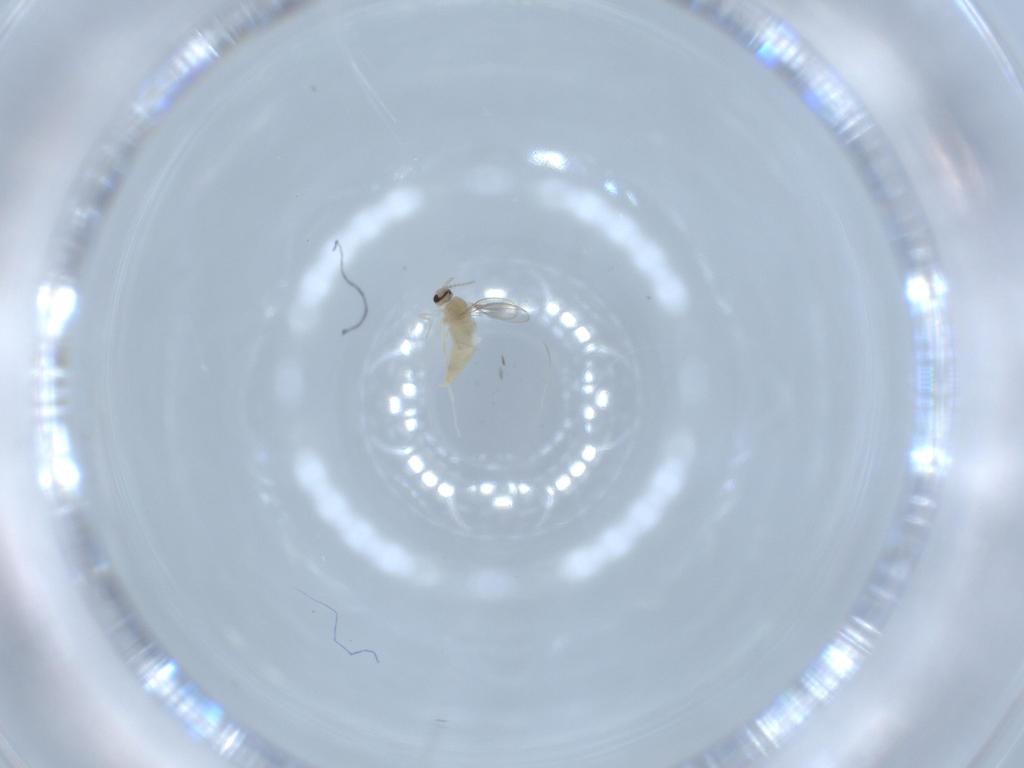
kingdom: Animalia
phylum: Arthropoda
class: Insecta
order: Diptera
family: Cecidomyiidae
